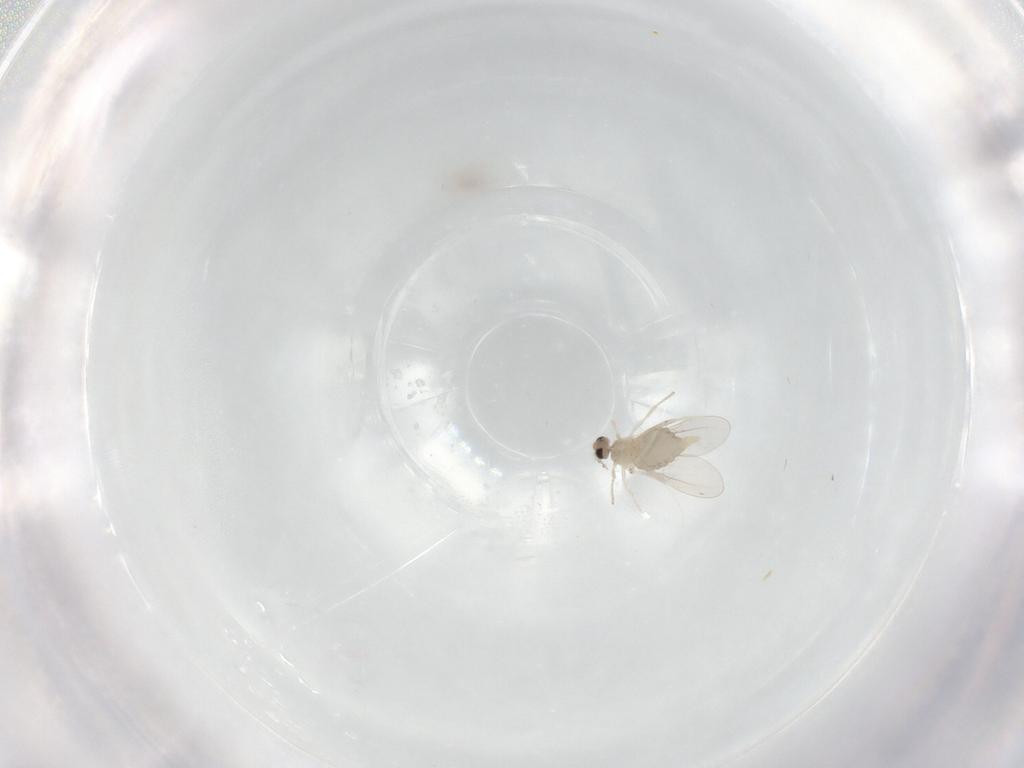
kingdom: Animalia
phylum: Arthropoda
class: Insecta
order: Diptera
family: Cecidomyiidae
